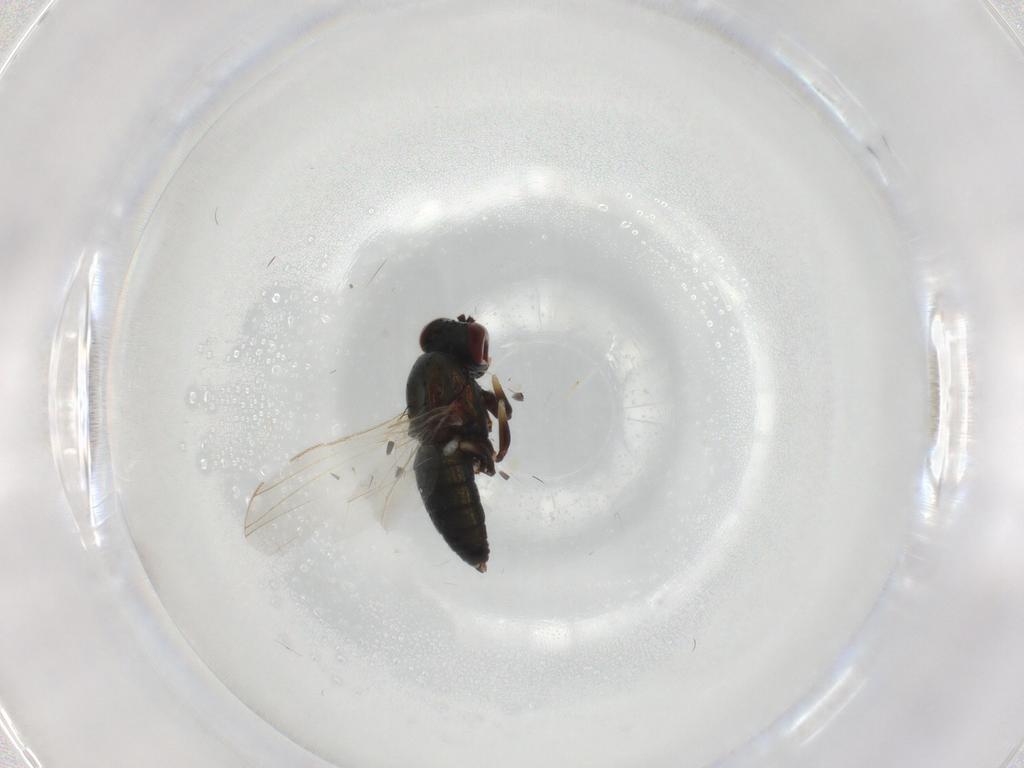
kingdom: Animalia
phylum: Arthropoda
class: Insecta
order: Diptera
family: Dolichopodidae
